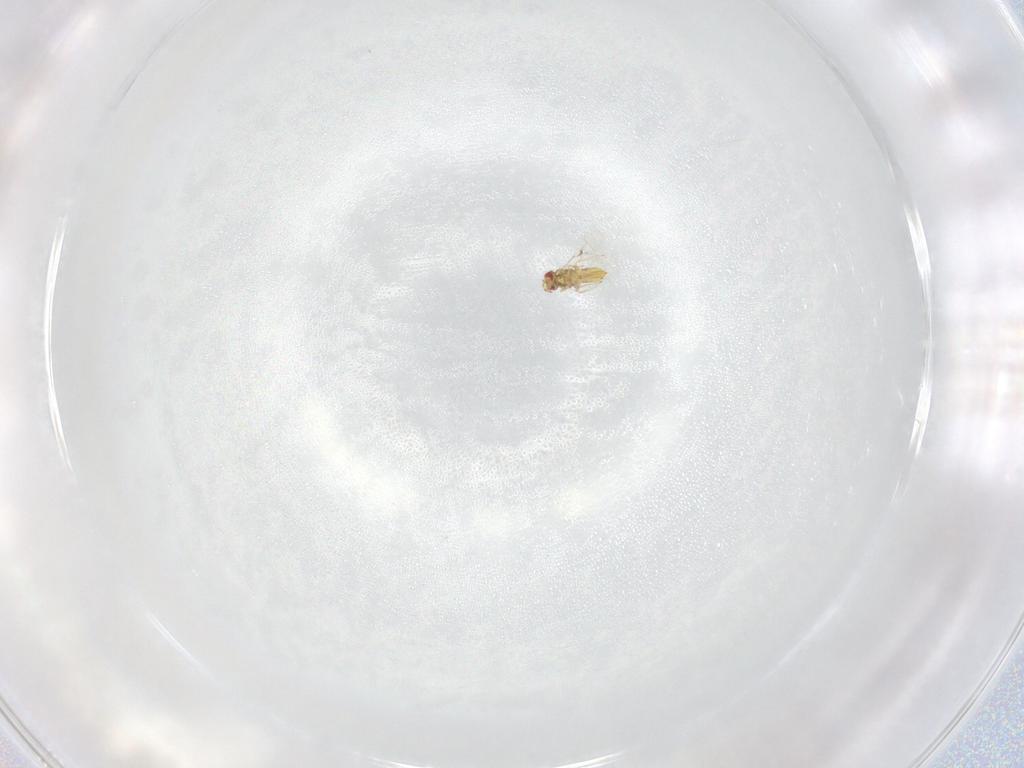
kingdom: Animalia
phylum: Arthropoda
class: Insecta
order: Hymenoptera
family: Trichogrammatidae
